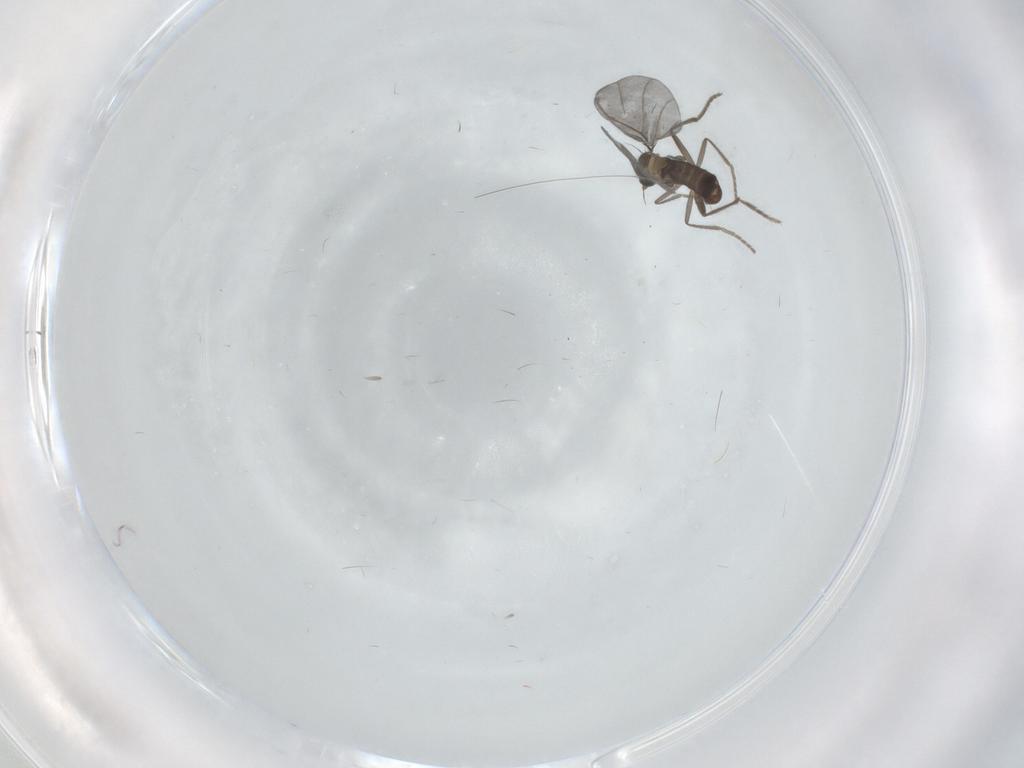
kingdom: Animalia
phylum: Arthropoda
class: Insecta
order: Diptera
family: Phoridae
